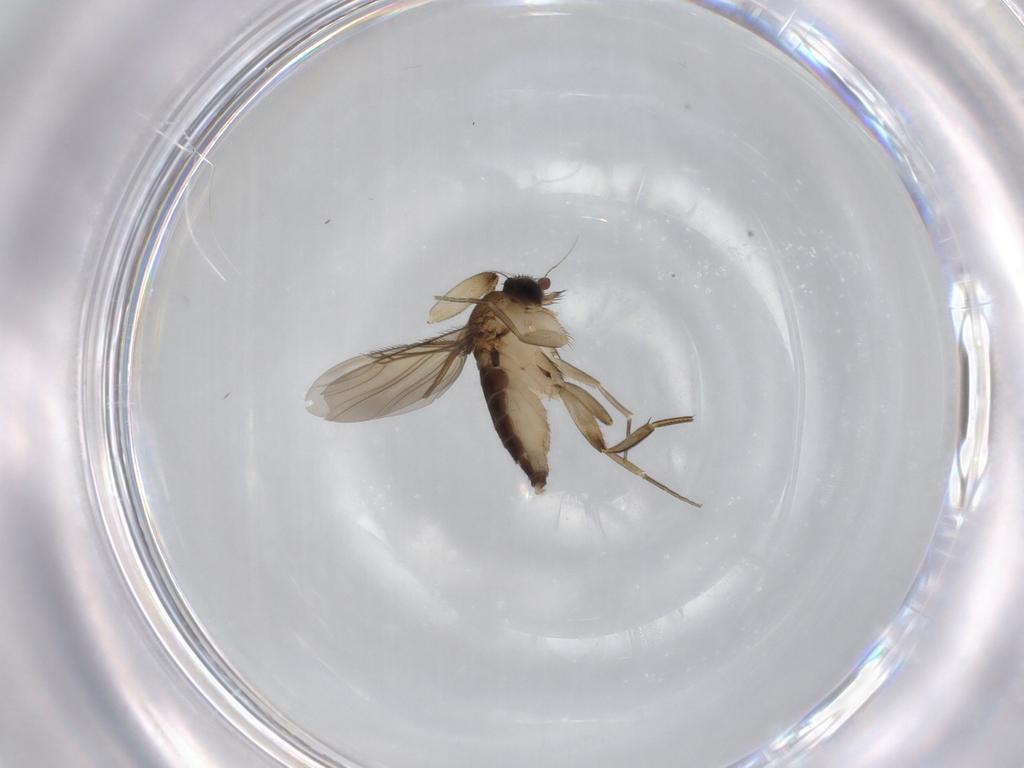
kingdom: Animalia
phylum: Arthropoda
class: Insecta
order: Diptera
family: Phoridae
